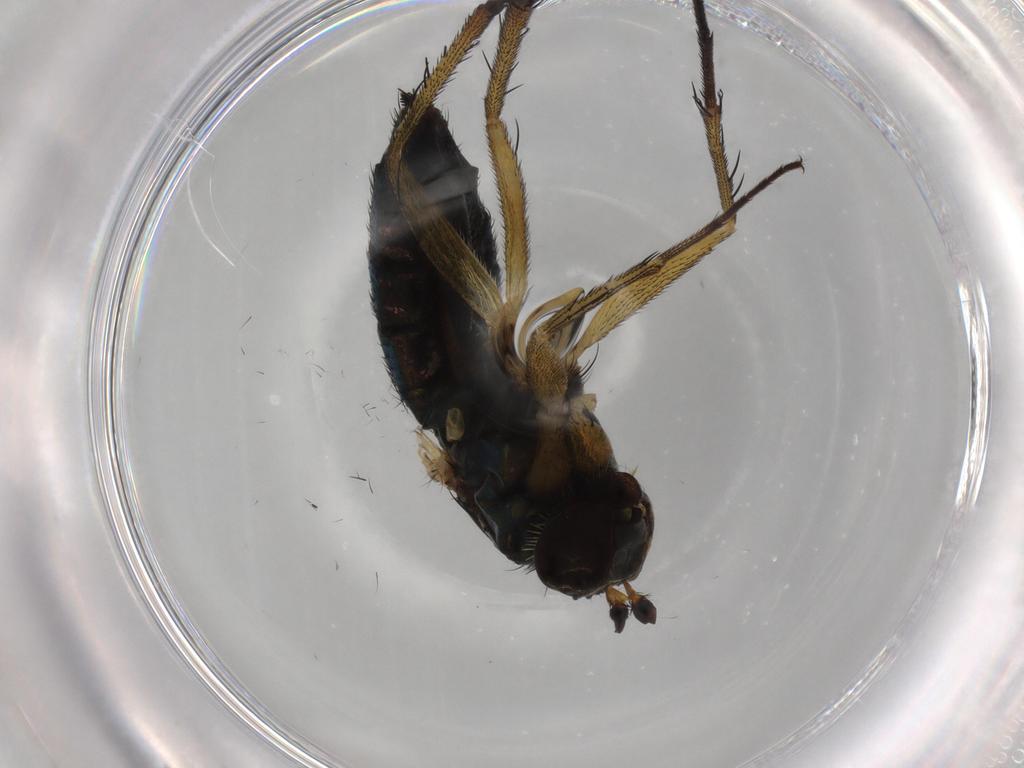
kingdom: Animalia
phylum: Arthropoda
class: Insecta
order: Diptera
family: Dolichopodidae
